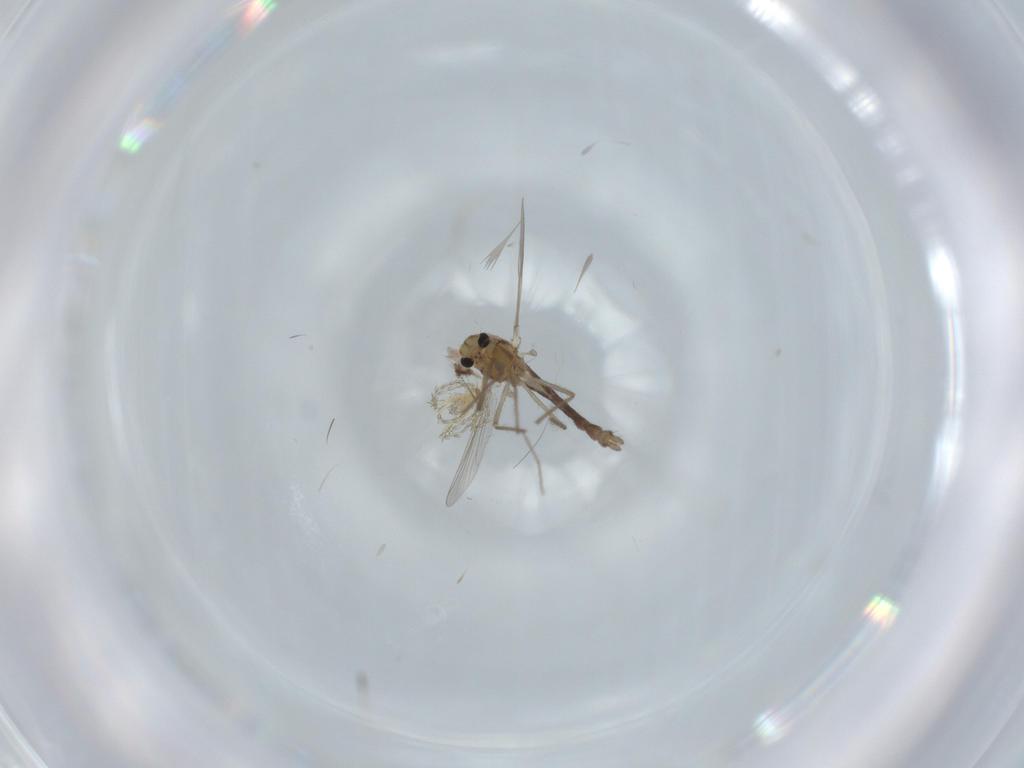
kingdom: Animalia
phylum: Arthropoda
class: Insecta
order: Diptera
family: Chironomidae
